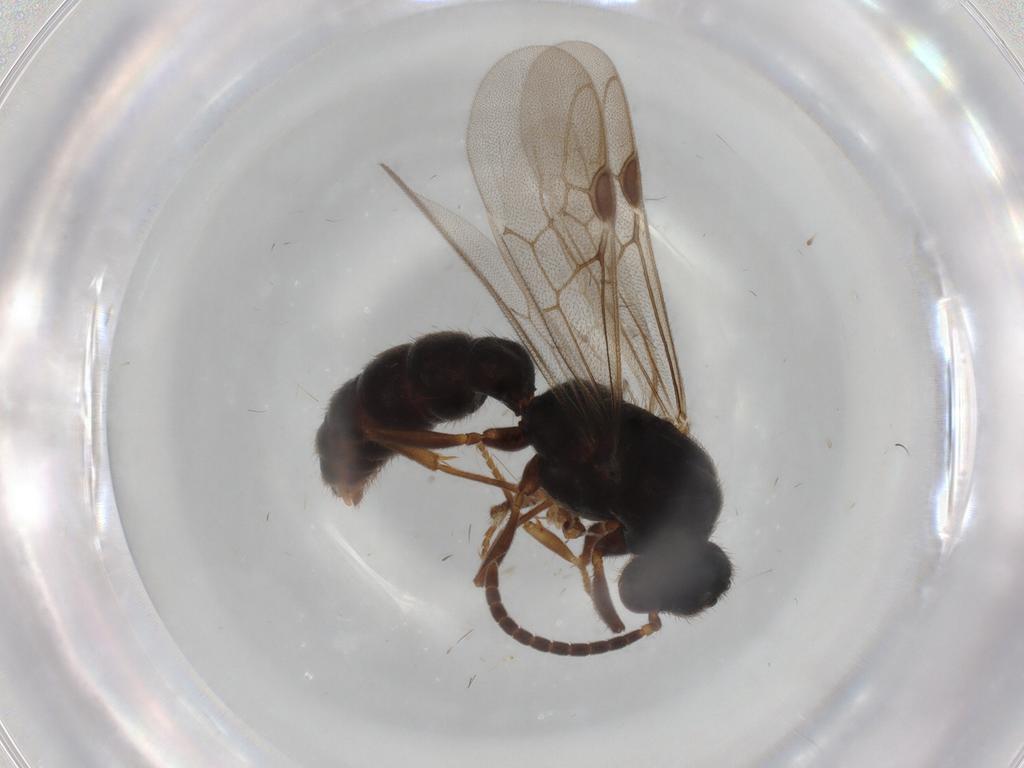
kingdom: Animalia
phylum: Arthropoda
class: Insecta
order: Hymenoptera
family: Formicidae
